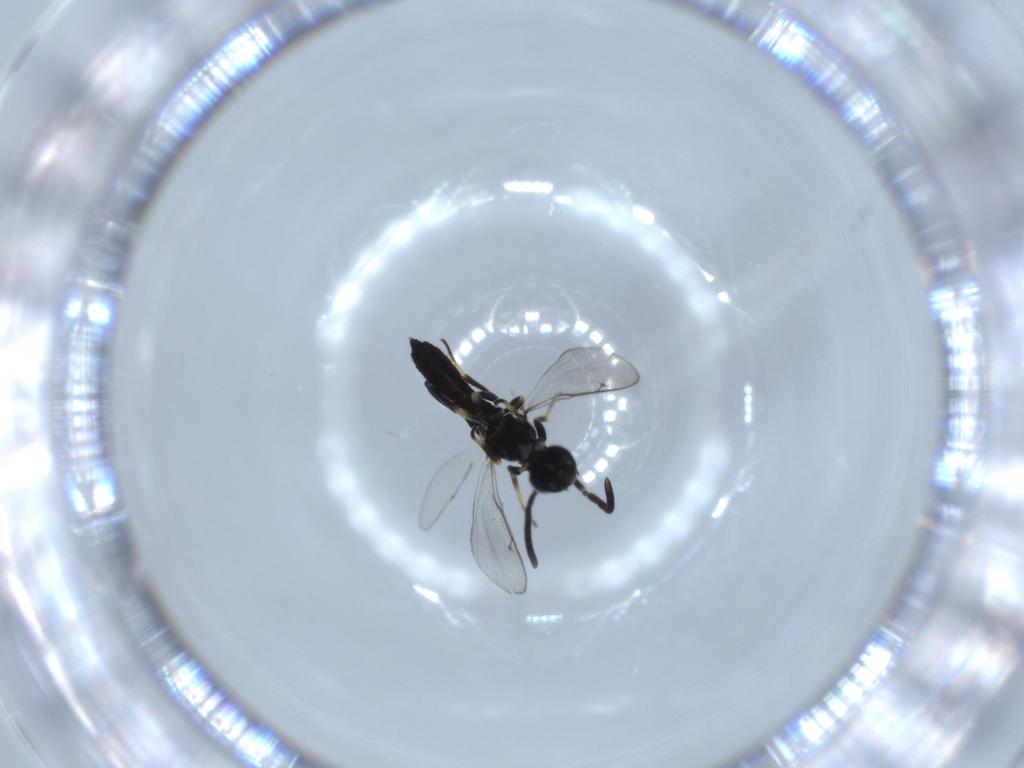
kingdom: Animalia
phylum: Arthropoda
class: Insecta
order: Hymenoptera
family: Eupelmidae
